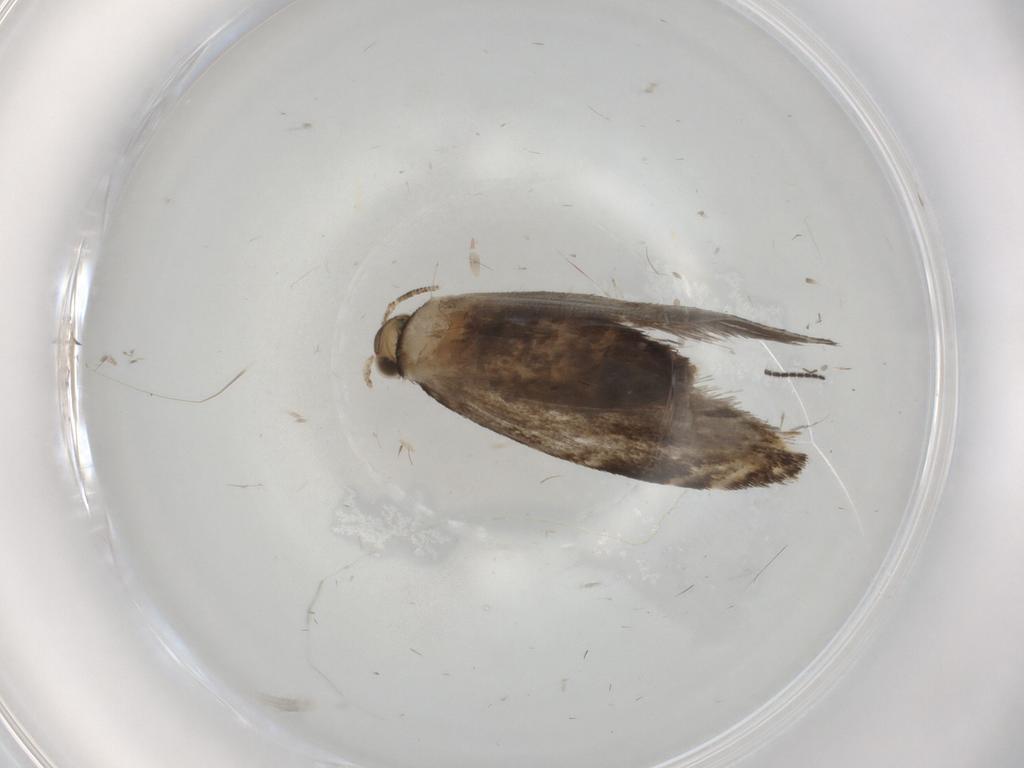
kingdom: Animalia
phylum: Arthropoda
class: Insecta
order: Lepidoptera
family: Tineidae
